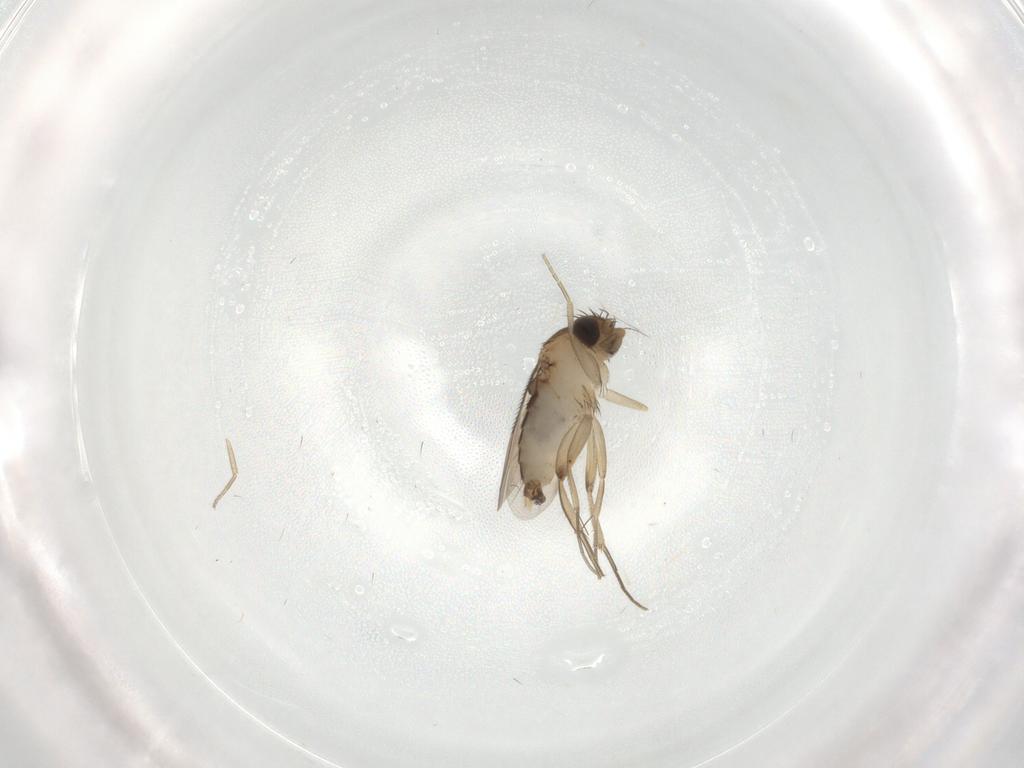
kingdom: Animalia
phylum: Arthropoda
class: Insecta
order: Diptera
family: Phoridae
